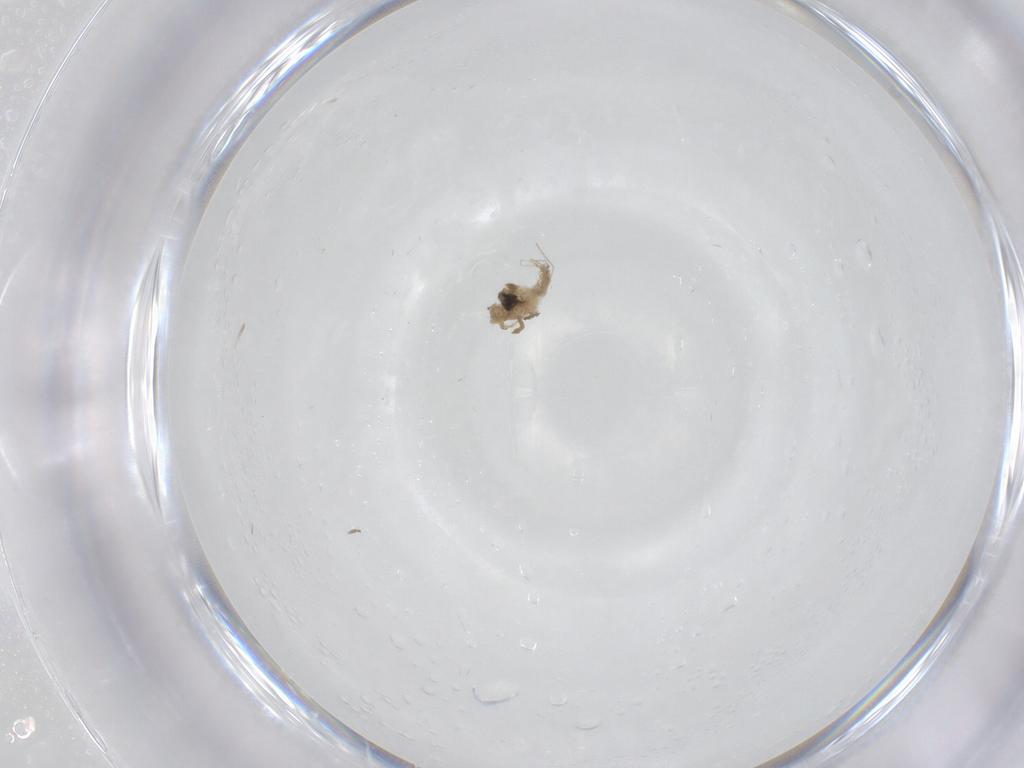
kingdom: Animalia
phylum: Arthropoda
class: Insecta
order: Diptera
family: Cecidomyiidae
